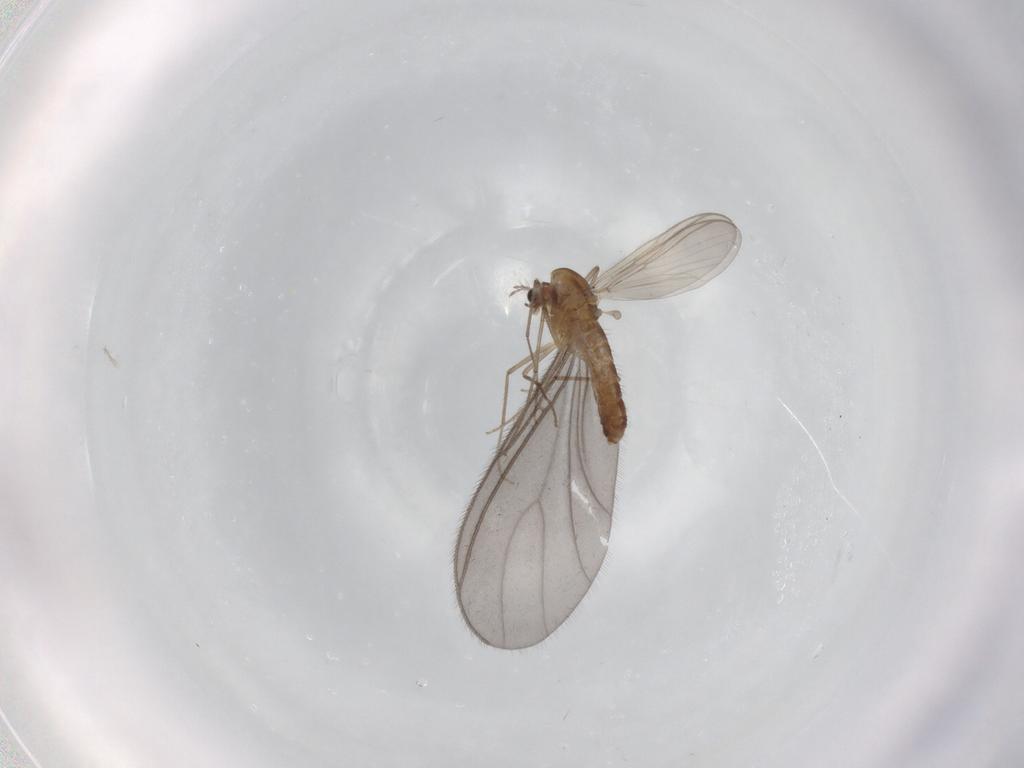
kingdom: Animalia
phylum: Arthropoda
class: Insecta
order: Diptera
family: Chironomidae
